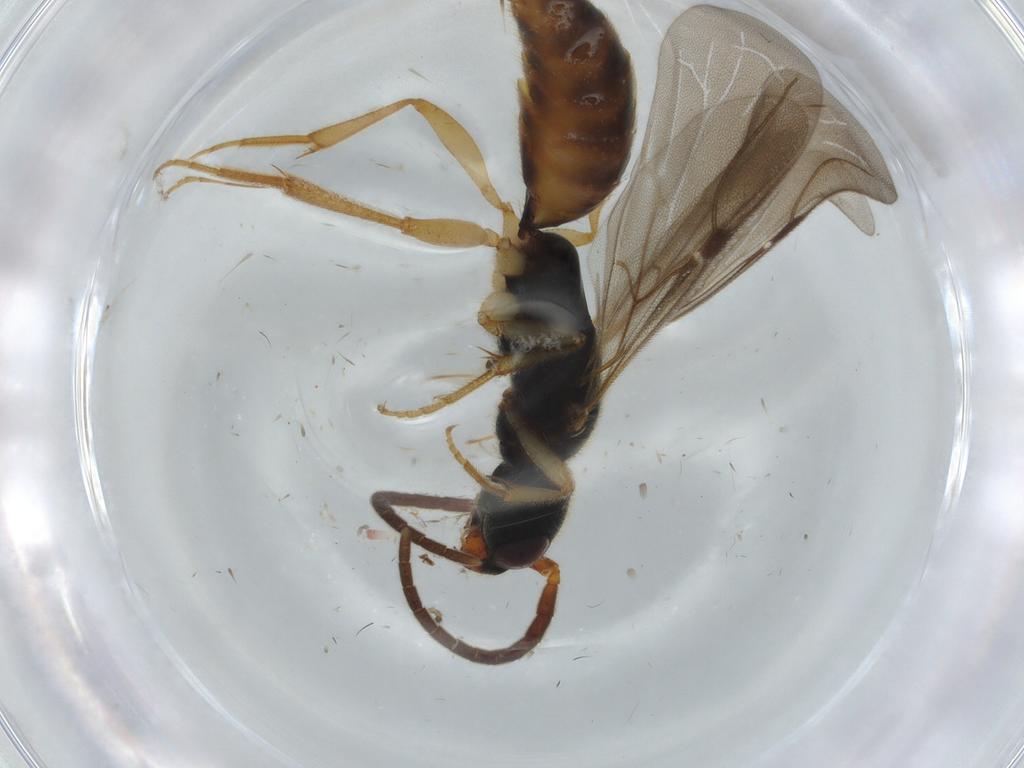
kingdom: Animalia
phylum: Arthropoda
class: Insecta
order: Hymenoptera
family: Bethylidae
